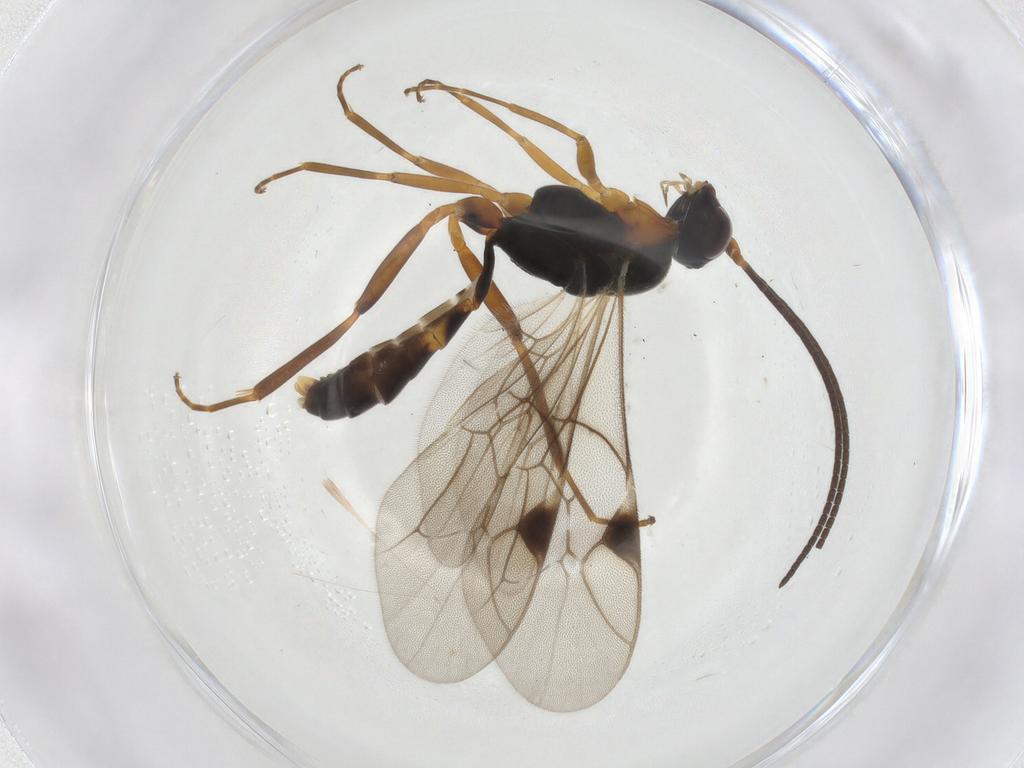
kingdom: Animalia
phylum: Arthropoda
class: Insecta
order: Hymenoptera
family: Ichneumonidae
